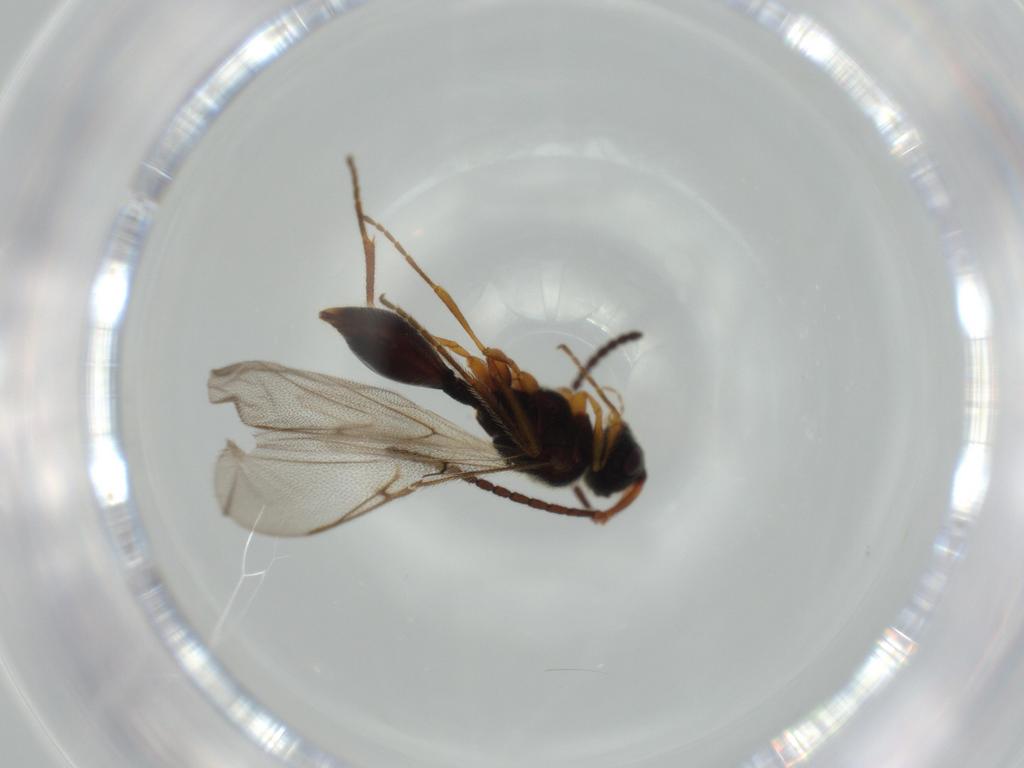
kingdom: Animalia
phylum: Arthropoda
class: Insecta
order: Hymenoptera
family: Diapriidae
